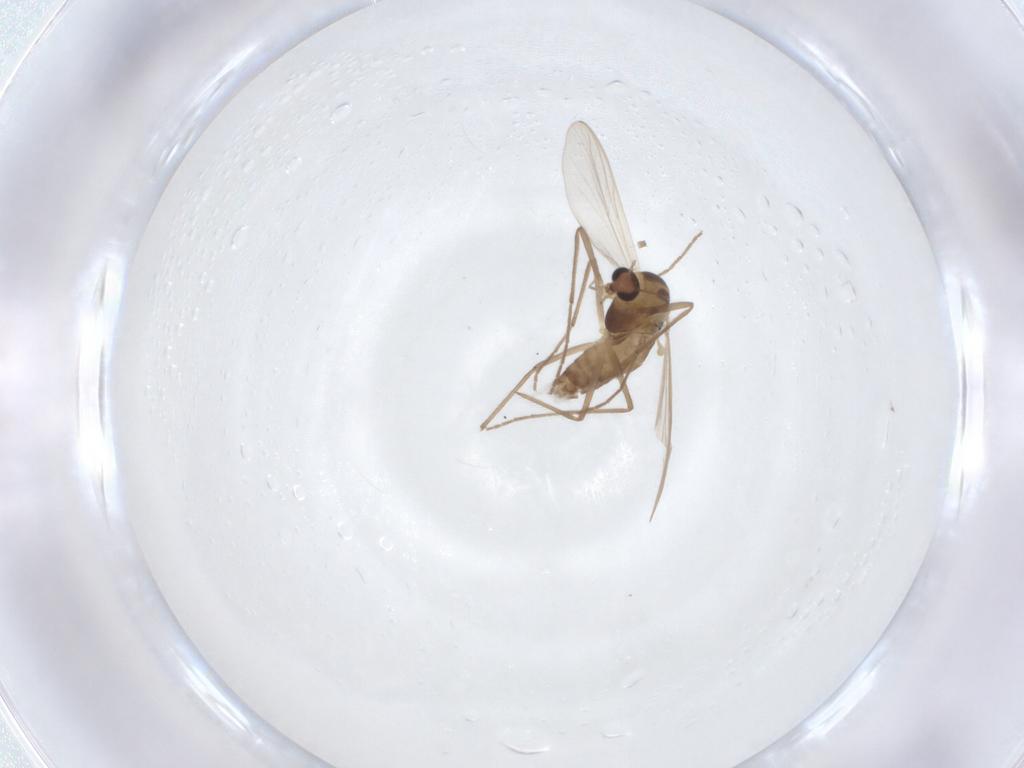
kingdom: Animalia
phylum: Arthropoda
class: Insecta
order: Diptera
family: Chironomidae
